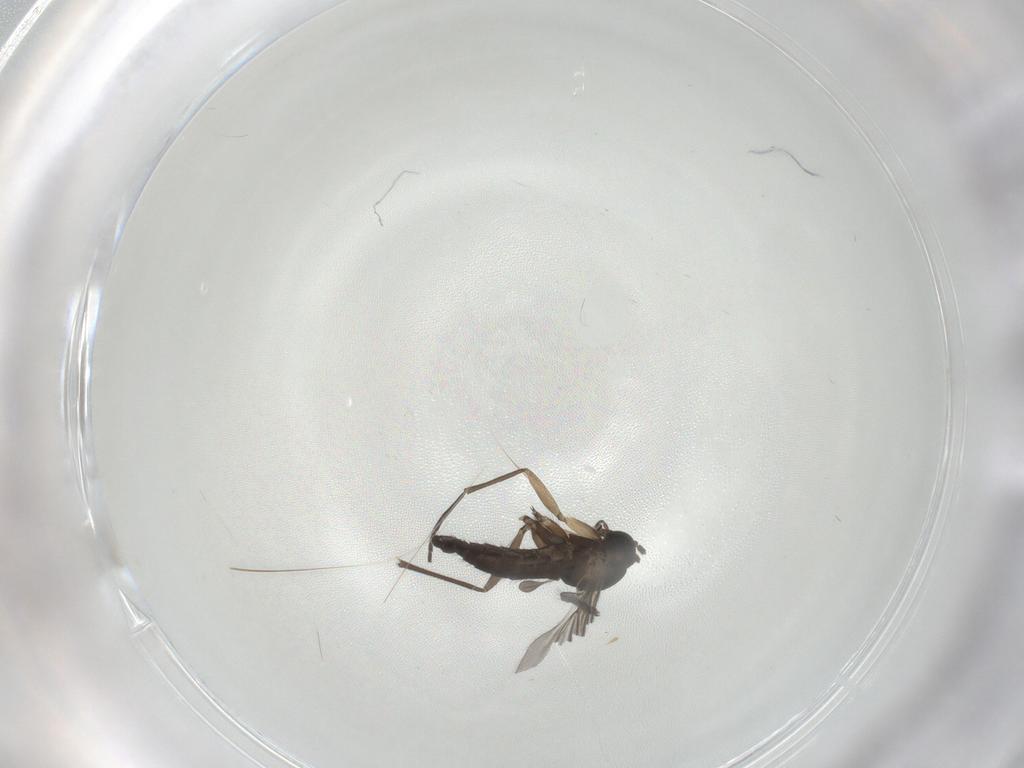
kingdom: Animalia
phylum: Arthropoda
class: Insecta
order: Diptera
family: Sciaridae
